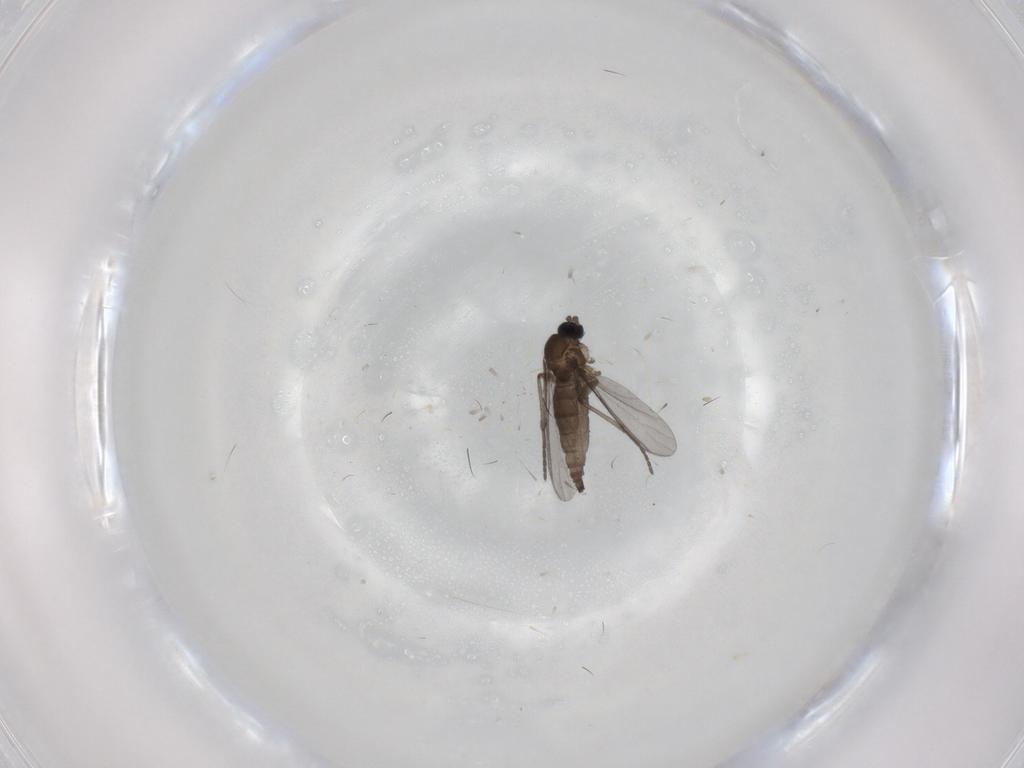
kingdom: Animalia
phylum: Arthropoda
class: Insecta
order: Diptera
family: Sciaridae
